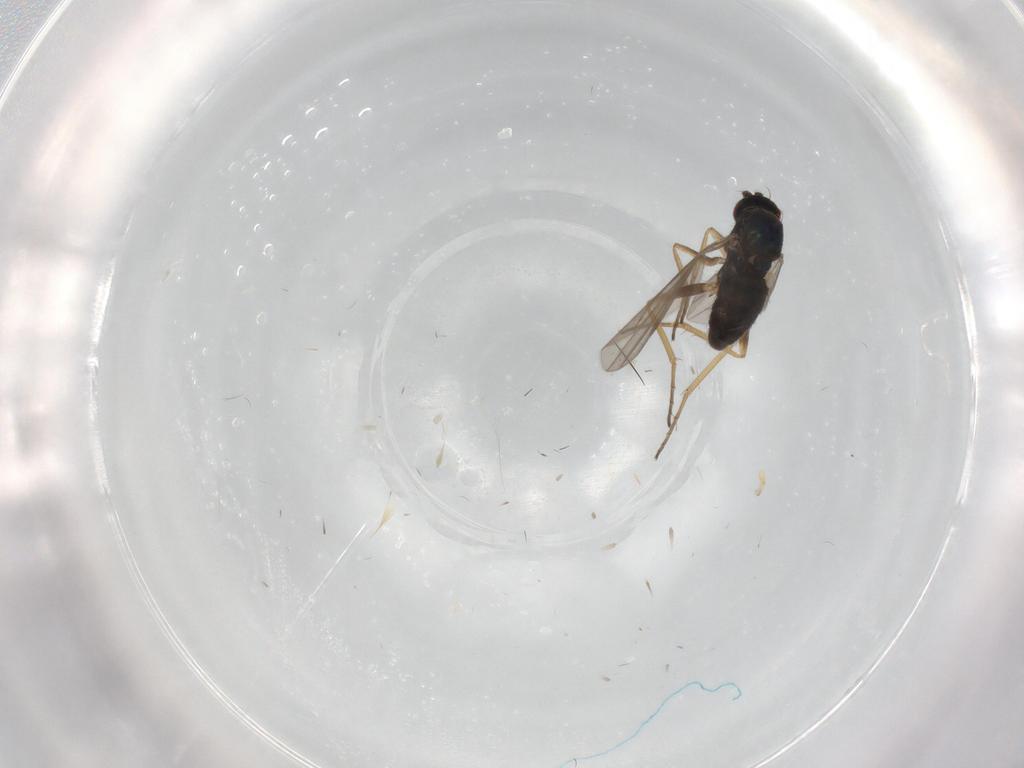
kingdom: Animalia
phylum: Arthropoda
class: Insecta
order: Diptera
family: Dolichopodidae
